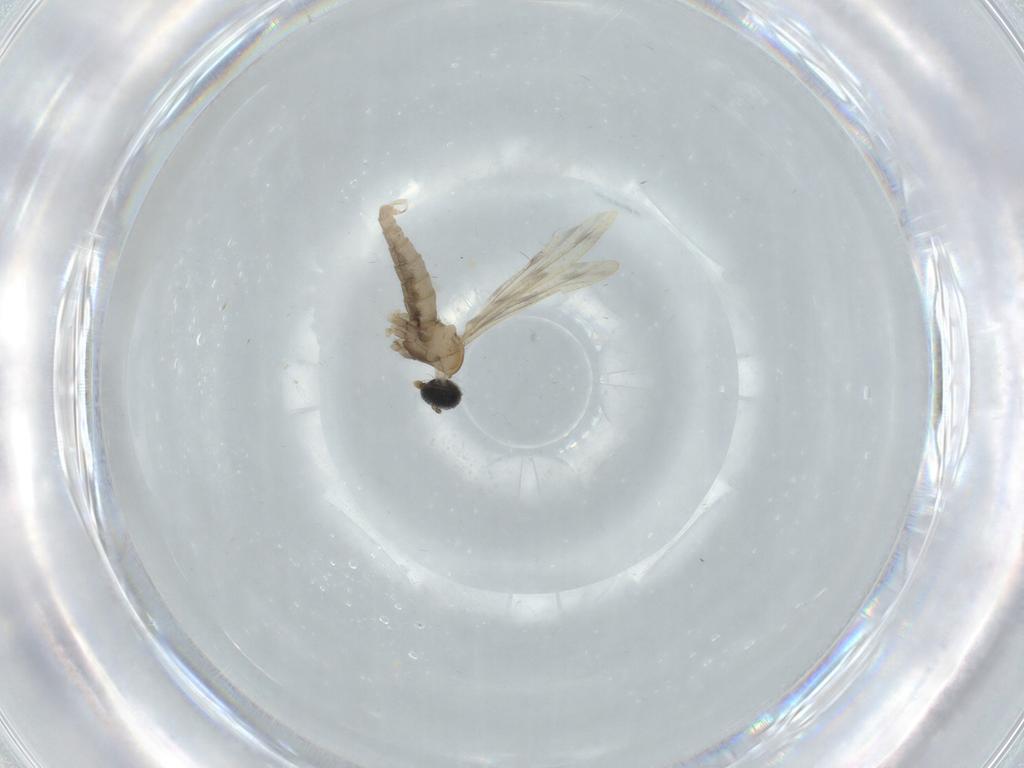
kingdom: Animalia
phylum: Arthropoda
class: Insecta
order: Diptera
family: Cecidomyiidae
